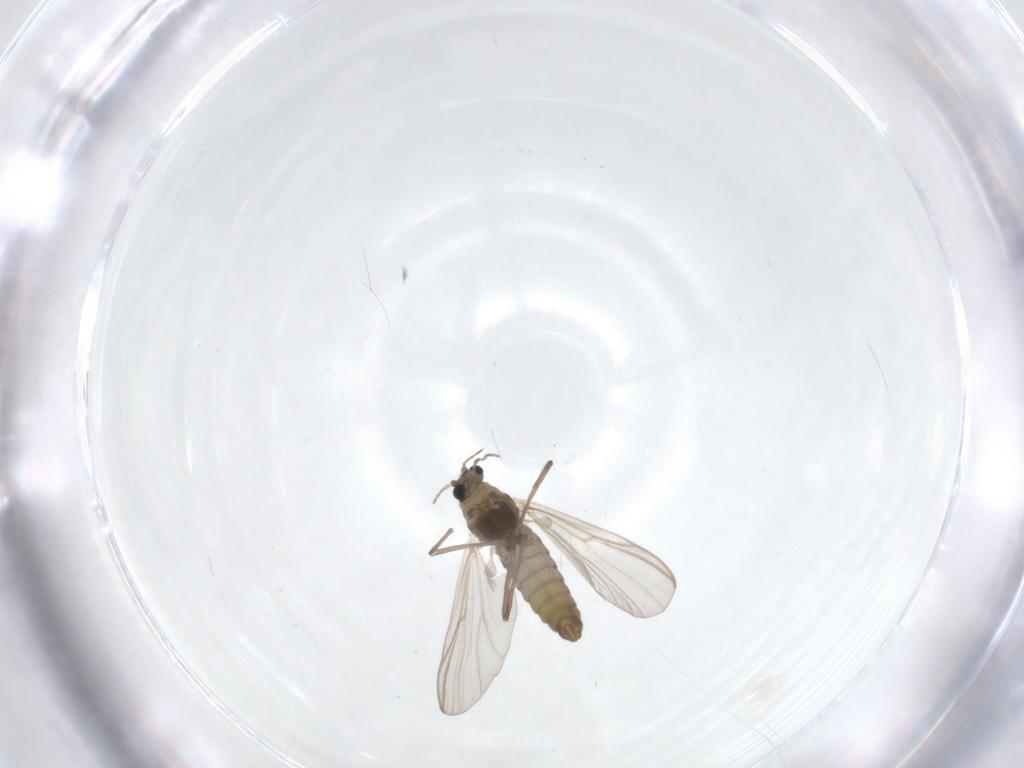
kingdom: Animalia
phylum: Arthropoda
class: Insecta
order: Diptera
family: Chironomidae
